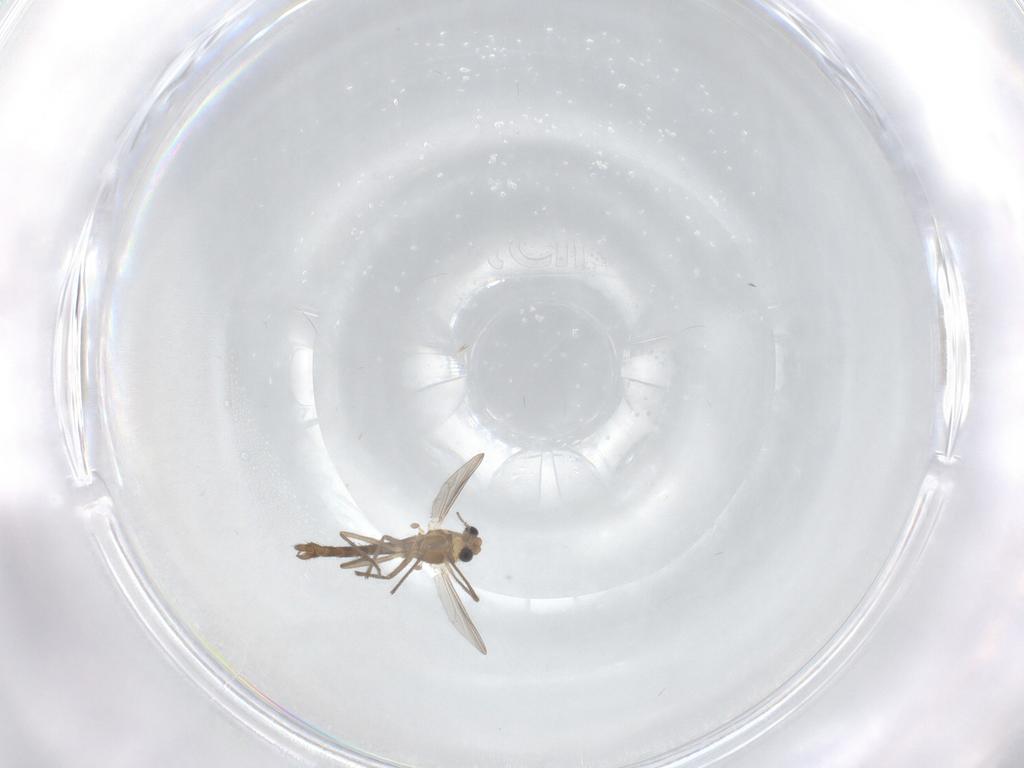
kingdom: Animalia
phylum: Arthropoda
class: Insecta
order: Diptera
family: Chironomidae
